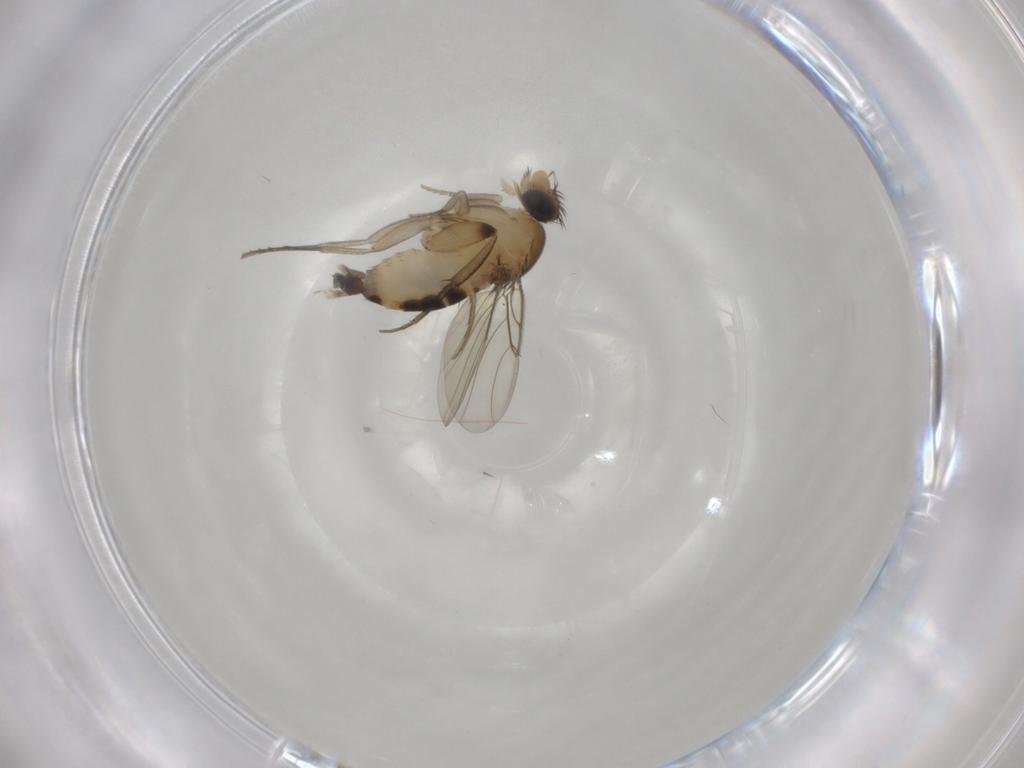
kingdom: Animalia
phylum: Arthropoda
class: Insecta
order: Diptera
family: Phoridae
